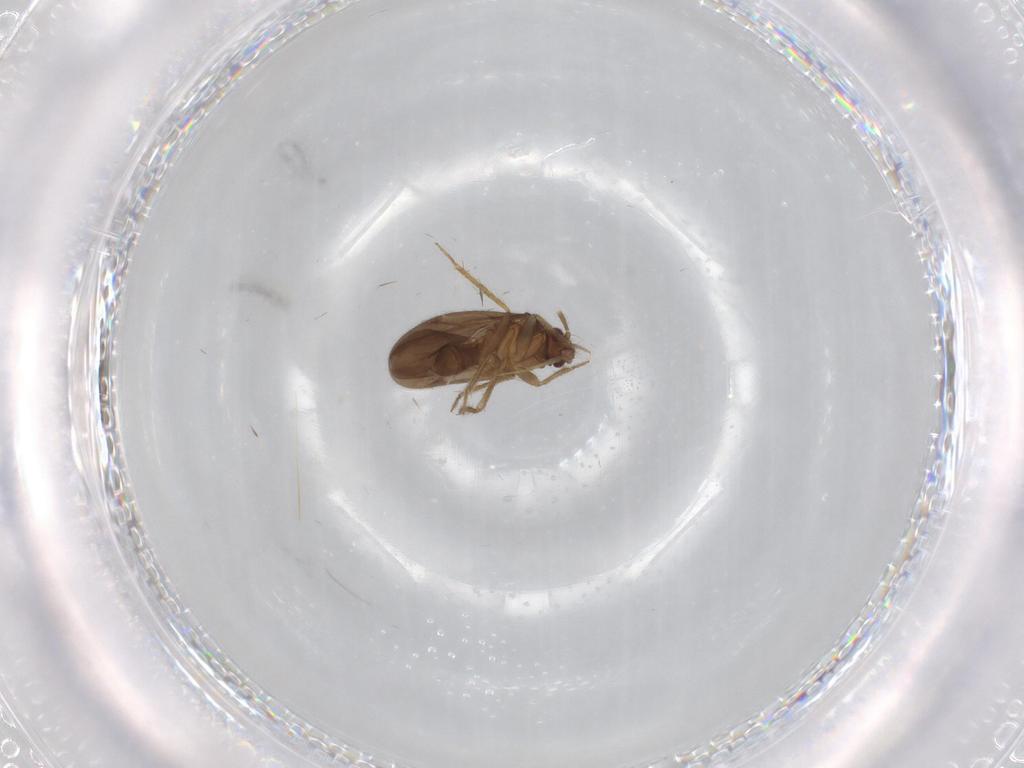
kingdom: Animalia
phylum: Arthropoda
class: Insecta
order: Hemiptera
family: Ceratocombidae
